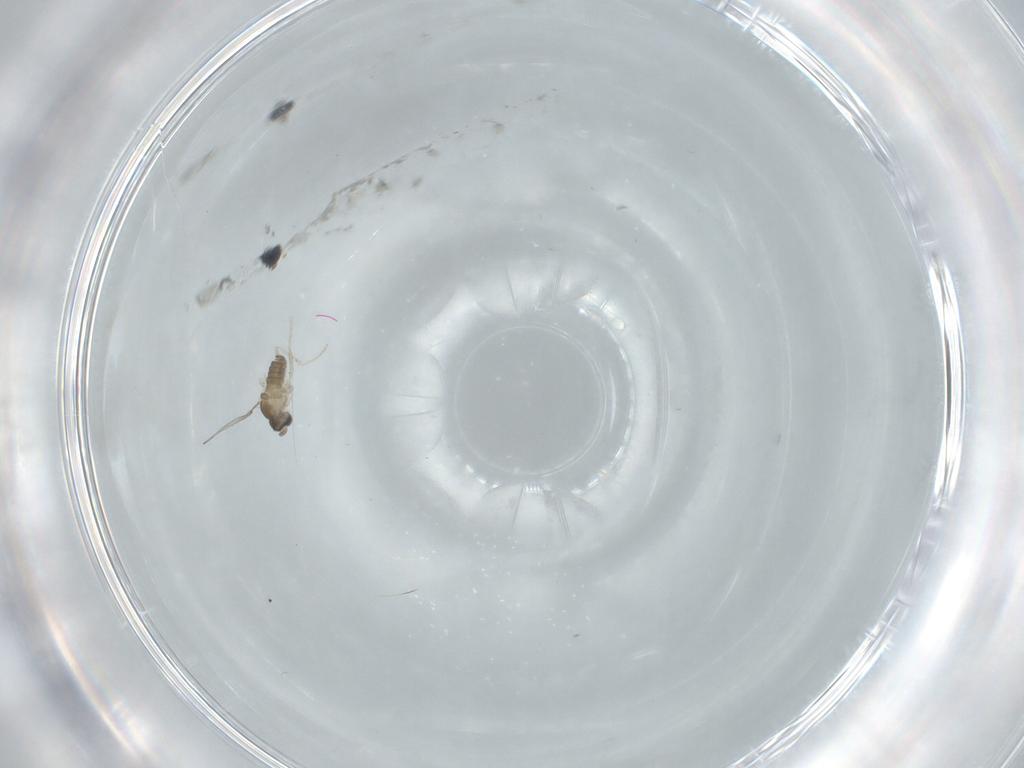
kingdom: Animalia
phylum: Arthropoda
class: Insecta
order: Diptera
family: Cecidomyiidae
